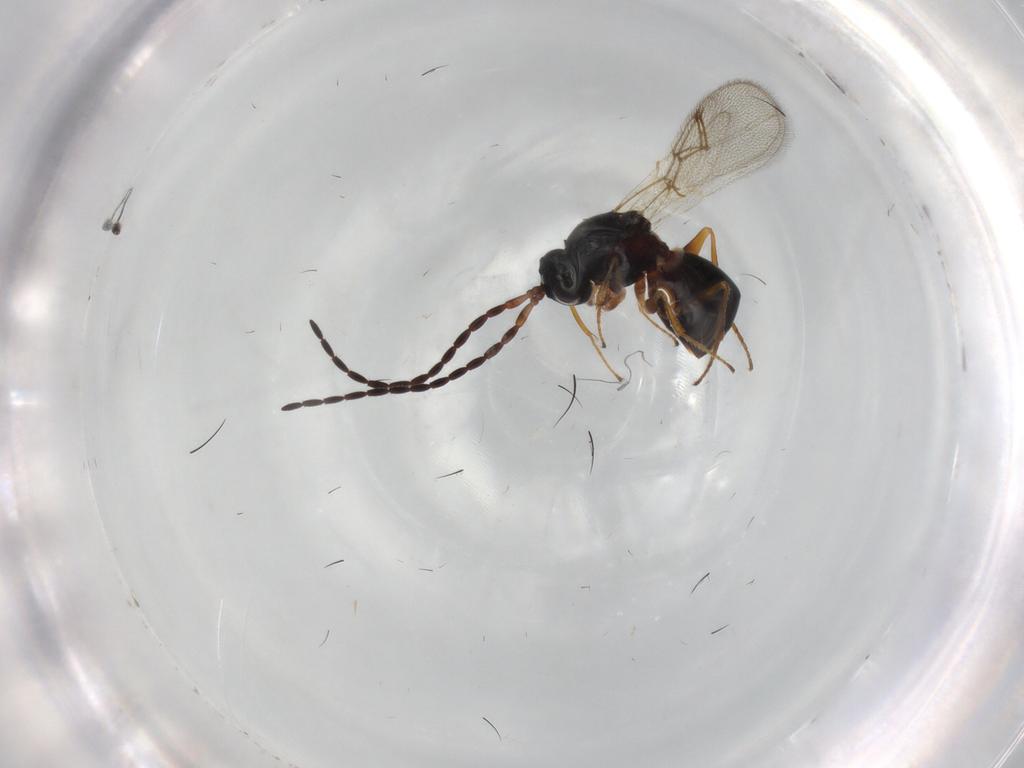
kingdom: Animalia
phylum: Arthropoda
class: Insecta
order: Hymenoptera
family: Figitidae
